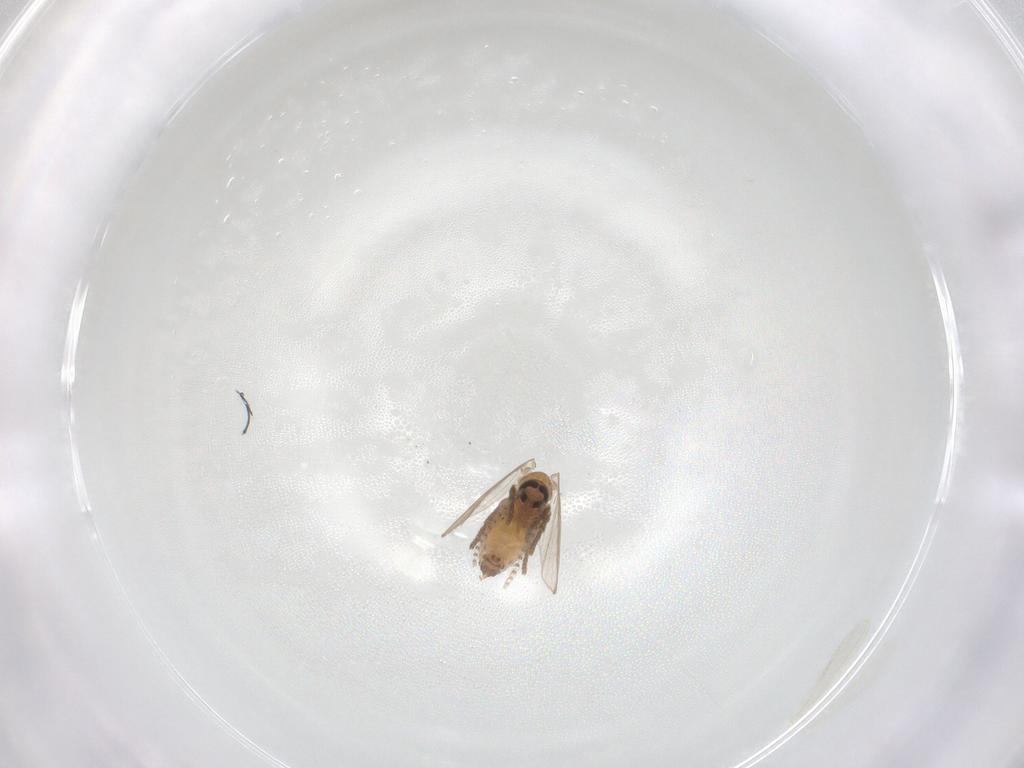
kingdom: Animalia
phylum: Arthropoda
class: Insecta
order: Diptera
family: Psychodidae
